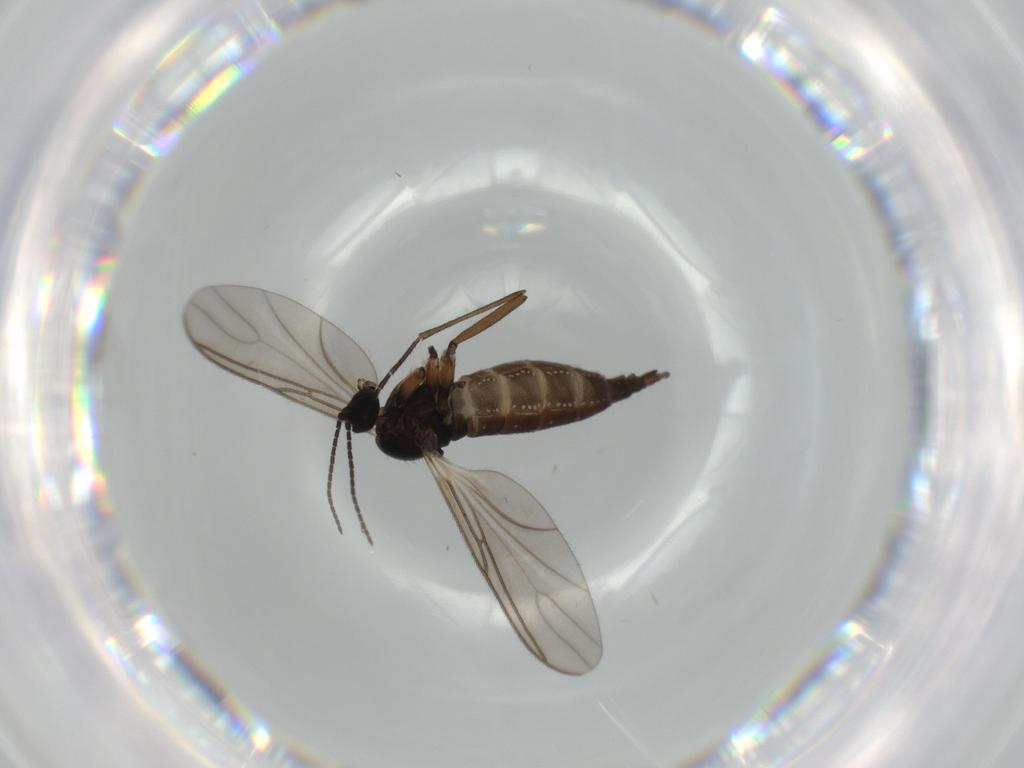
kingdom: Animalia
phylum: Arthropoda
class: Insecta
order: Diptera
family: Sciaridae
